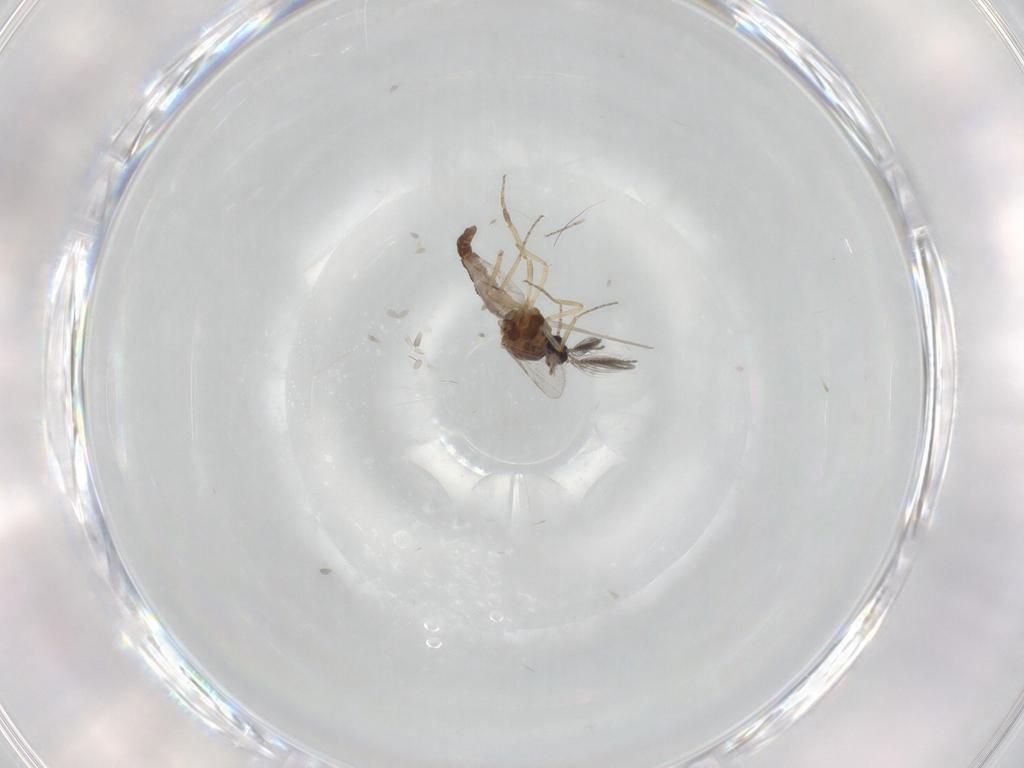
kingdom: Animalia
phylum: Arthropoda
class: Insecta
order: Diptera
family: Ceratopogonidae
